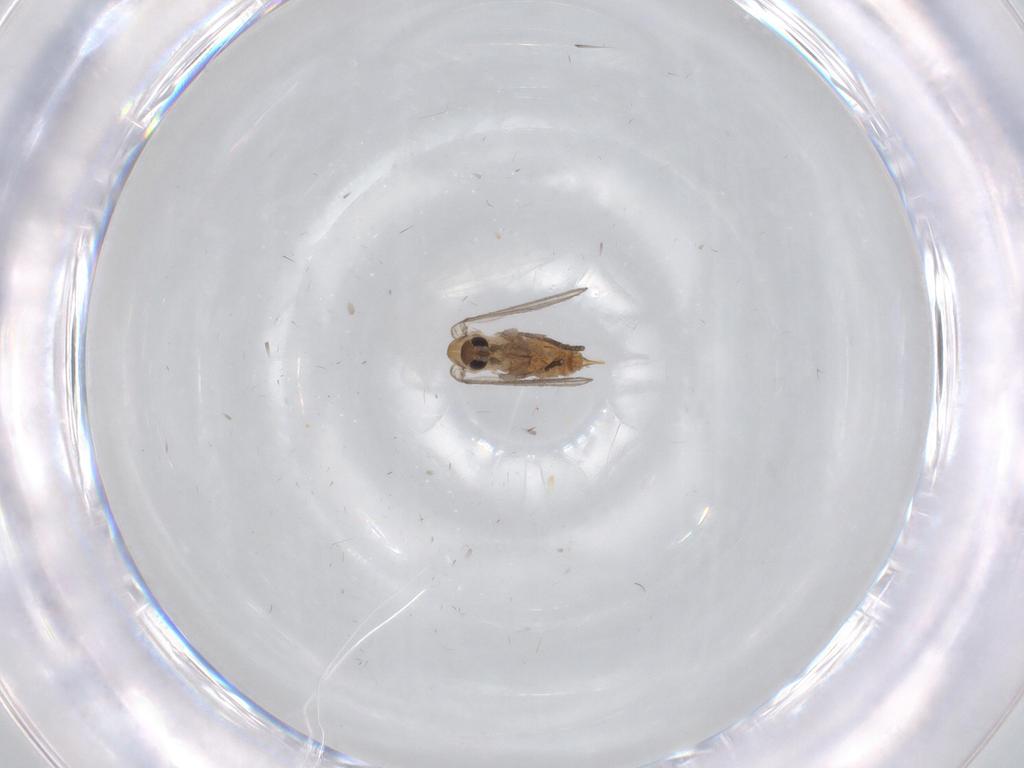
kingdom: Animalia
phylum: Arthropoda
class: Insecta
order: Diptera
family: Psychodidae
